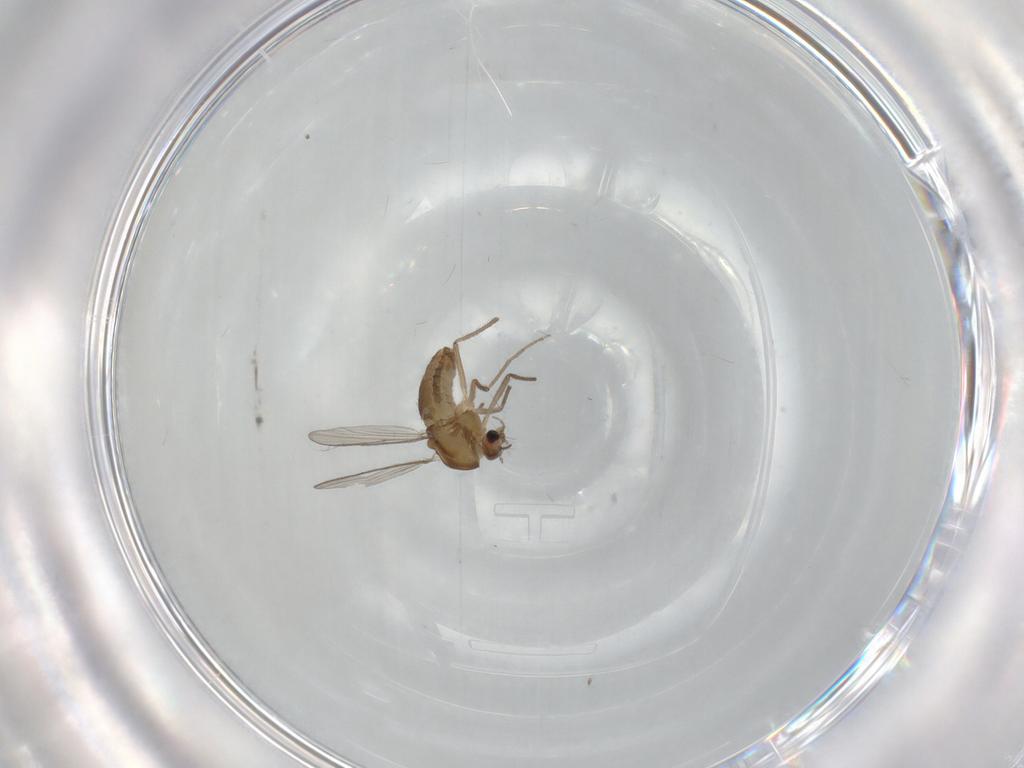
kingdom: Animalia
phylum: Arthropoda
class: Insecta
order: Diptera
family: Chironomidae
